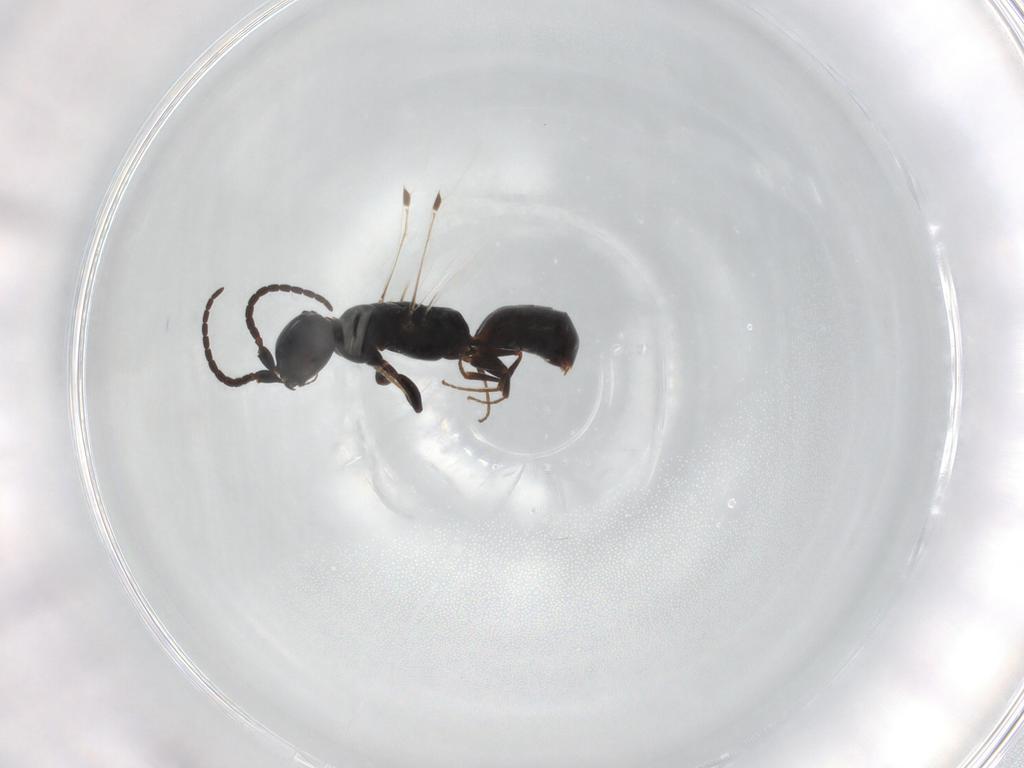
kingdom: Animalia
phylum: Arthropoda
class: Insecta
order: Hymenoptera
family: Bethylidae
